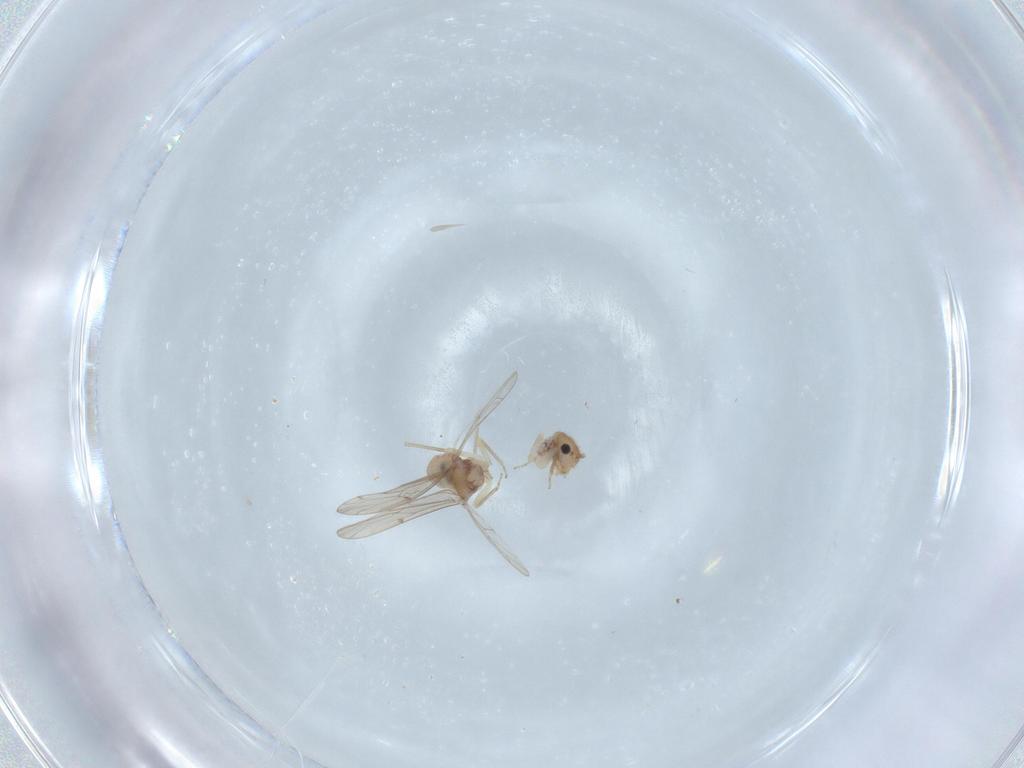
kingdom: Animalia
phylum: Arthropoda
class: Insecta
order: Psocodea
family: Ectopsocidae
